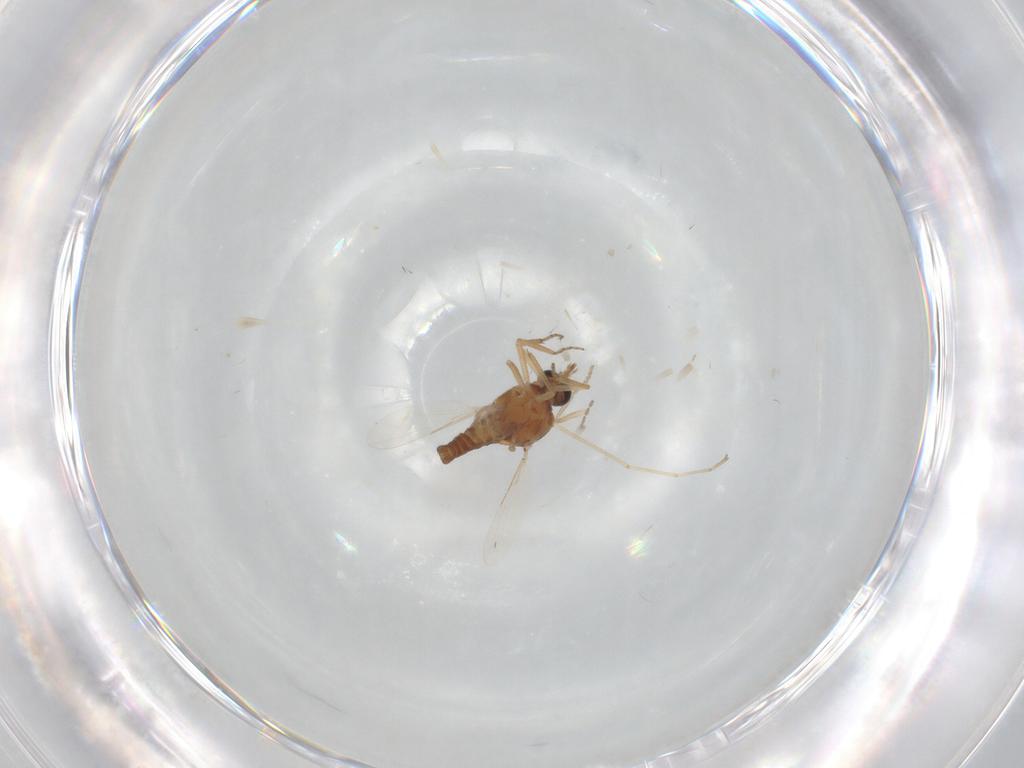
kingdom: Animalia
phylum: Arthropoda
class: Insecta
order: Diptera
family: Ceratopogonidae
